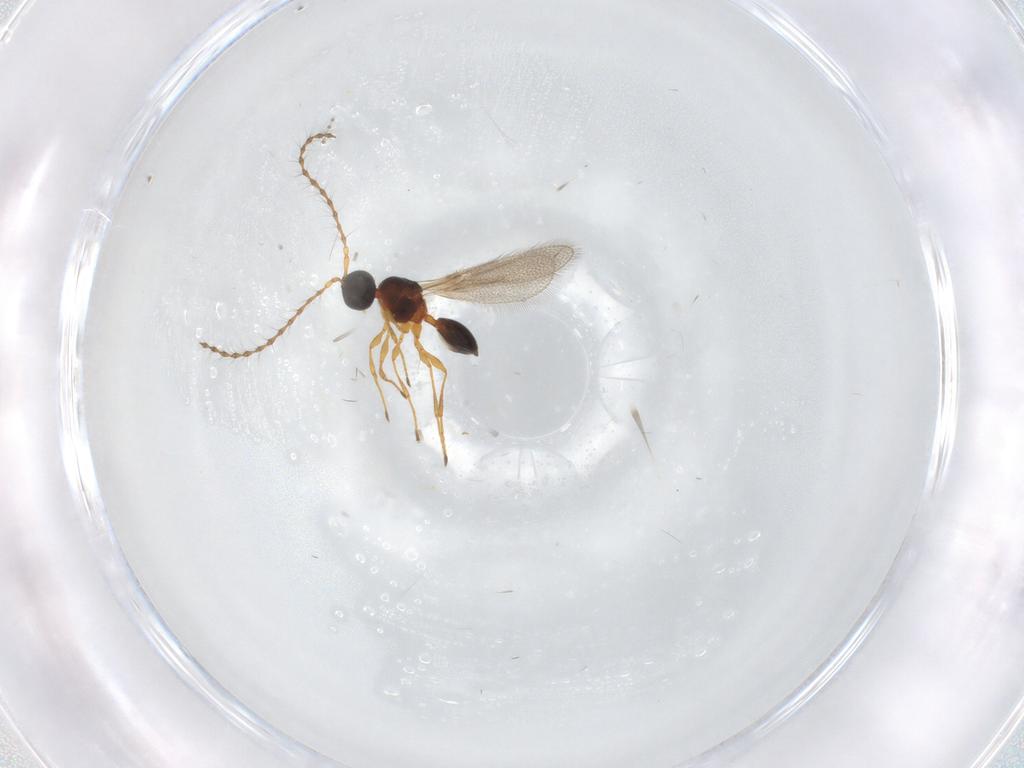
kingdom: Animalia
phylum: Arthropoda
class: Insecta
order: Hymenoptera
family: Diapriidae
